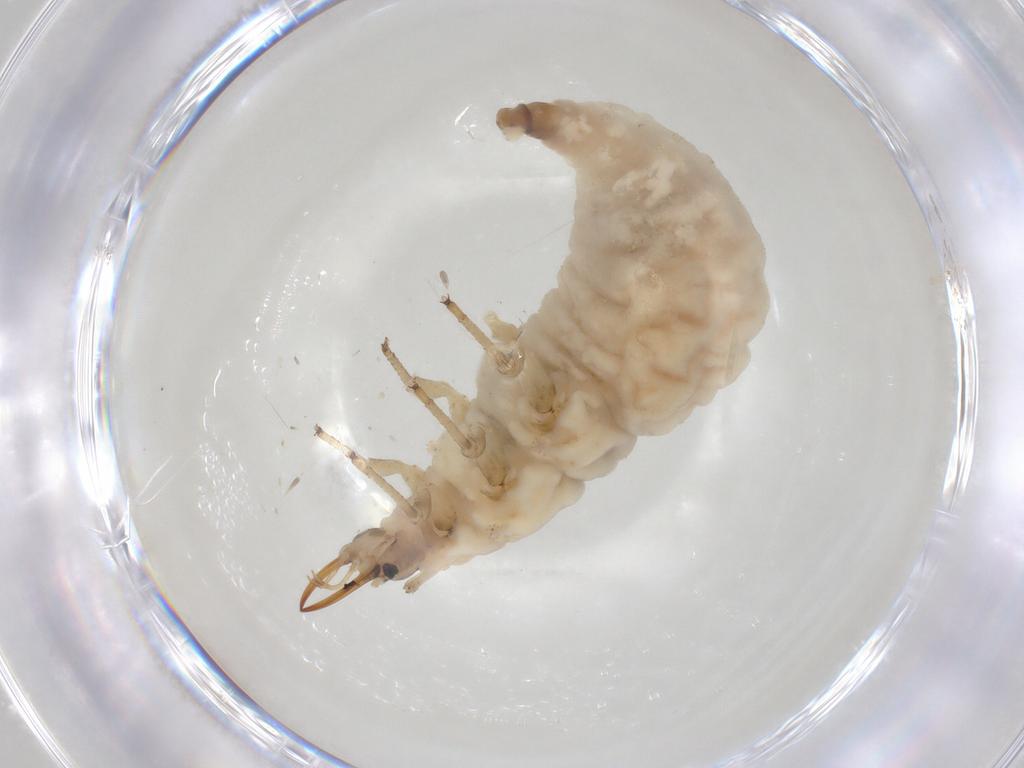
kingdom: Animalia
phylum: Arthropoda
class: Insecta
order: Neuroptera
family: Chrysopidae
